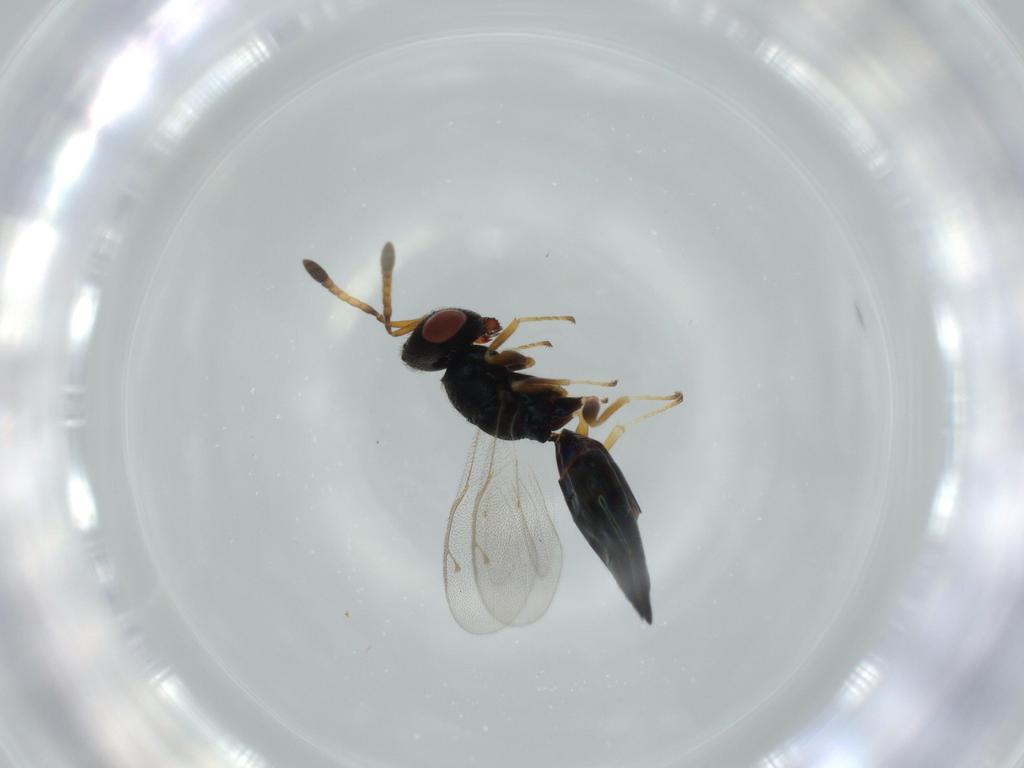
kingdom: Animalia
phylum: Arthropoda
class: Insecta
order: Hymenoptera
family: Pteromalidae
